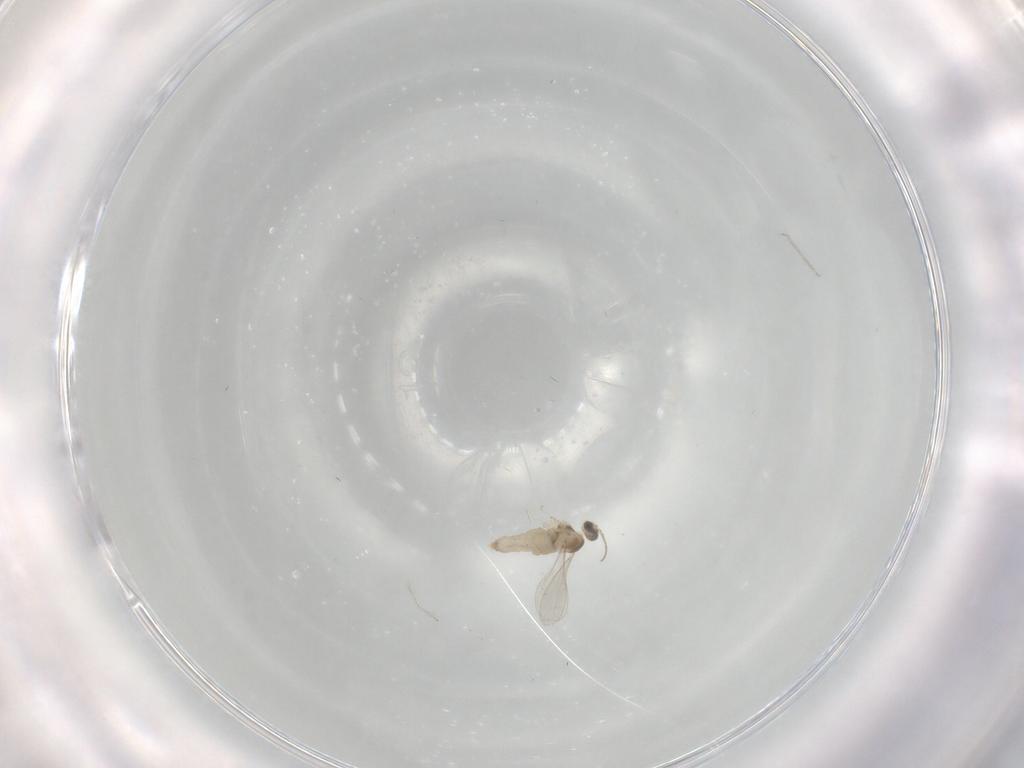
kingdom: Animalia
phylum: Arthropoda
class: Insecta
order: Diptera
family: Cecidomyiidae
